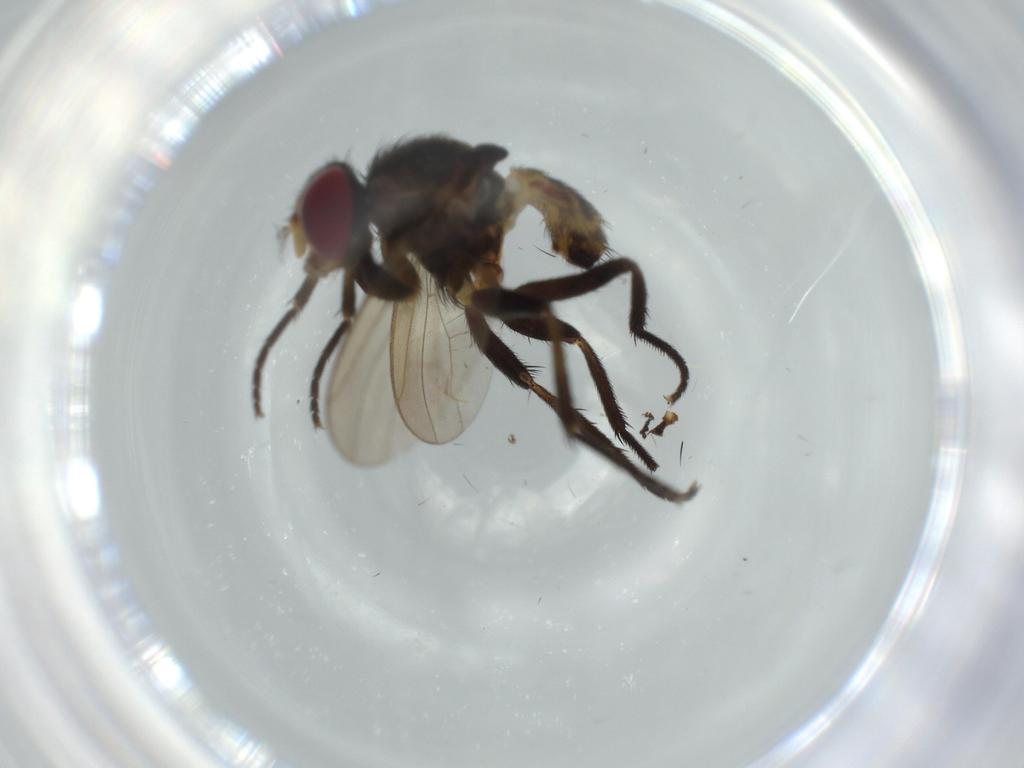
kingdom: Animalia
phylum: Arthropoda
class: Insecta
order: Diptera
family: Anthomyiidae
